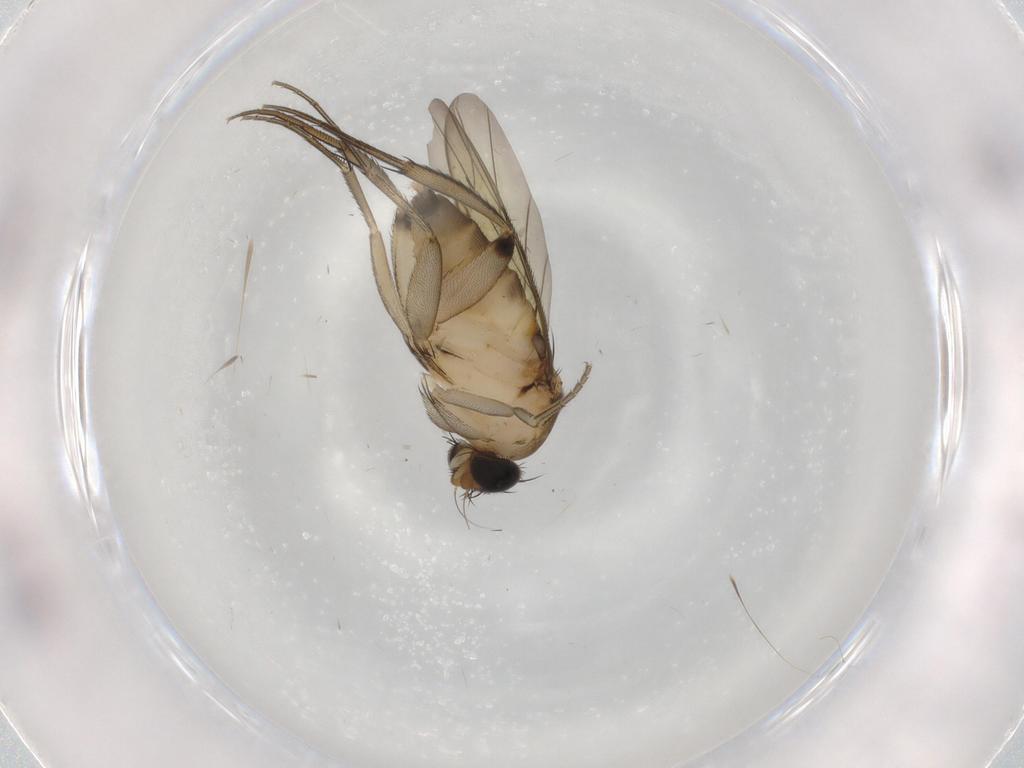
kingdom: Animalia
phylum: Arthropoda
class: Insecta
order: Diptera
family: Phoridae
